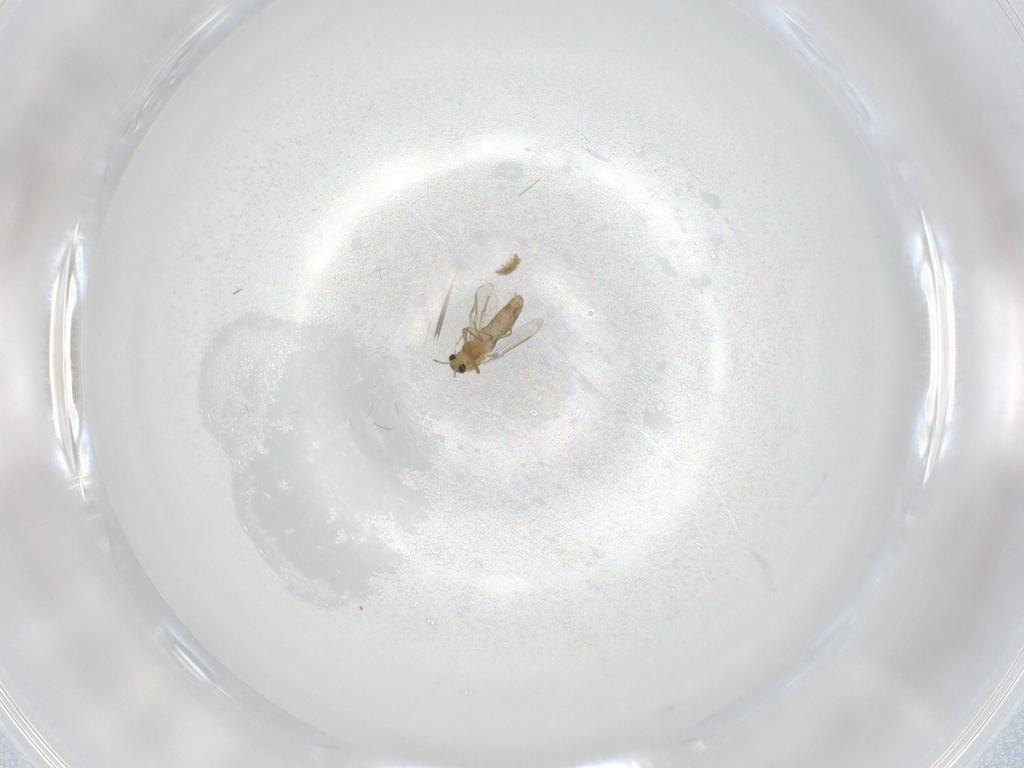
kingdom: Animalia
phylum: Arthropoda
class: Insecta
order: Diptera
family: Chironomidae
